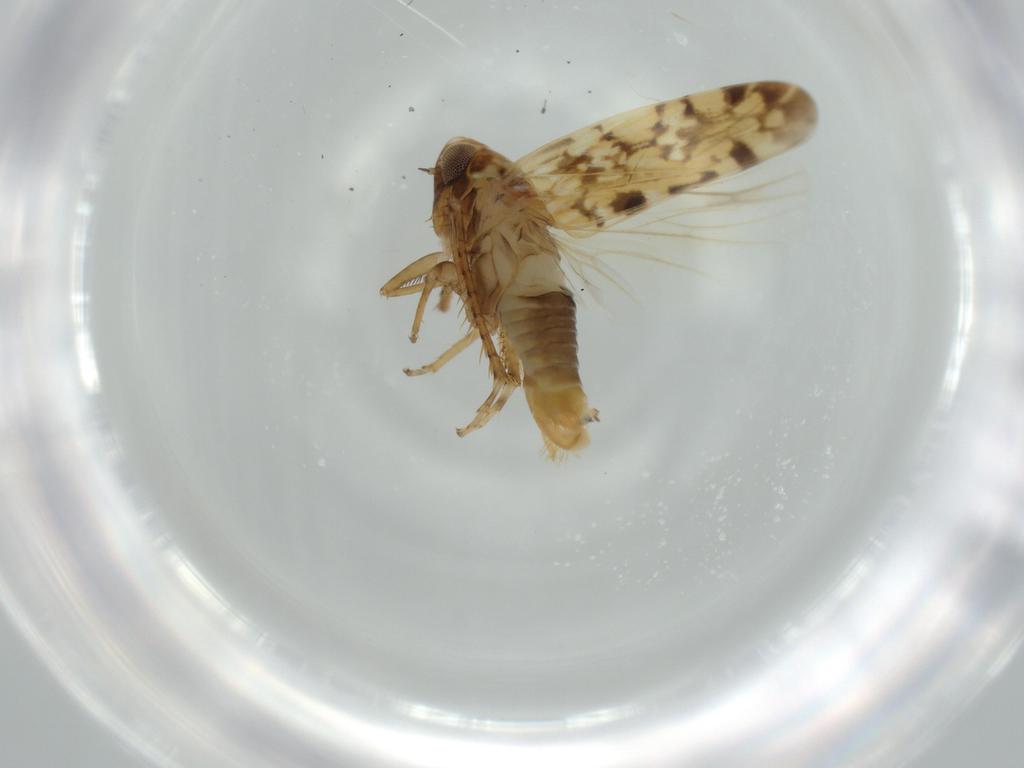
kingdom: Animalia
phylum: Arthropoda
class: Insecta
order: Hemiptera
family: Cicadellidae
